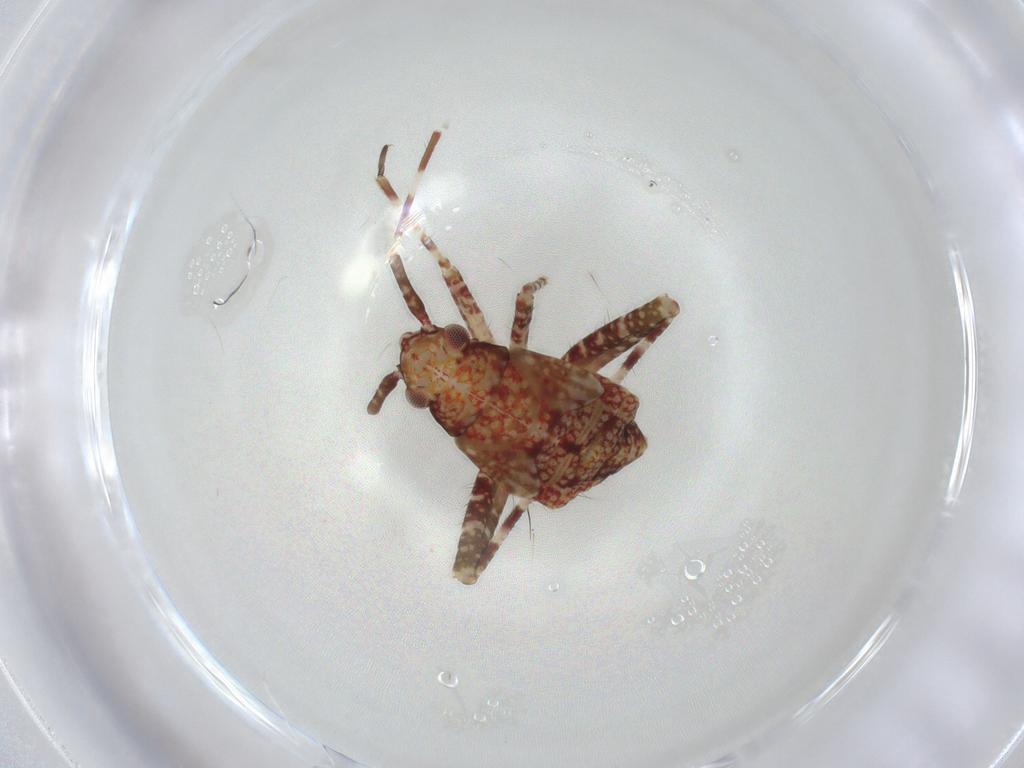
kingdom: Animalia
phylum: Arthropoda
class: Insecta
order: Hemiptera
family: Miridae
